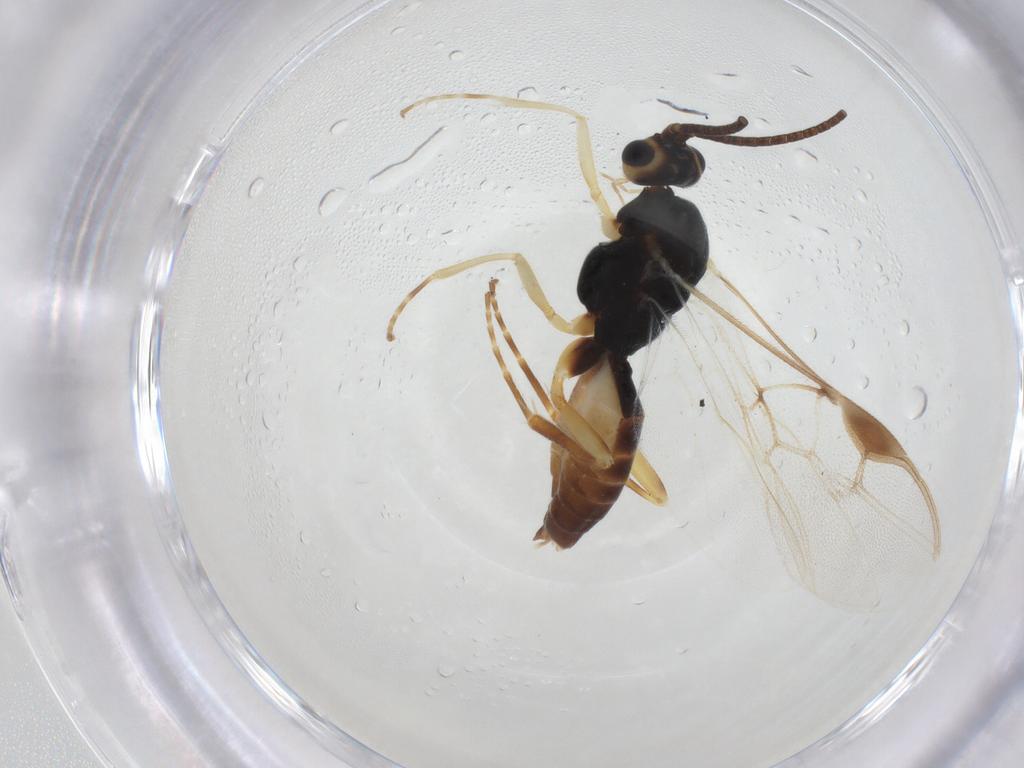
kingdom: Animalia
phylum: Arthropoda
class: Insecta
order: Hymenoptera
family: Braconidae
